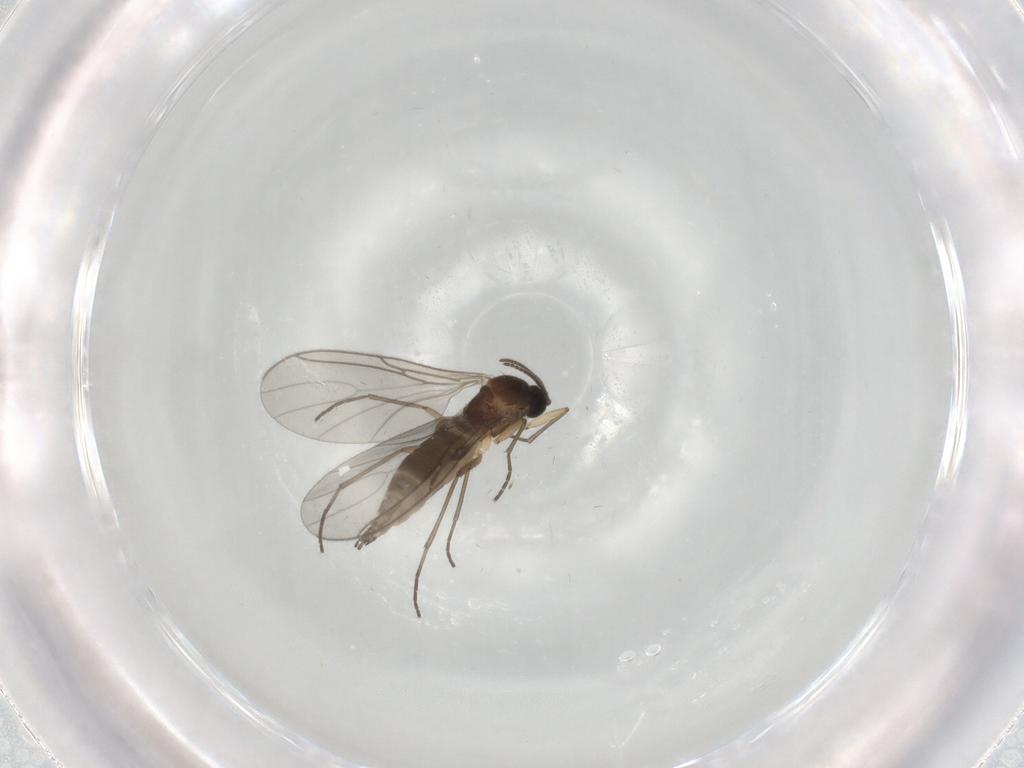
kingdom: Animalia
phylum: Arthropoda
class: Insecta
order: Diptera
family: Sciaridae
